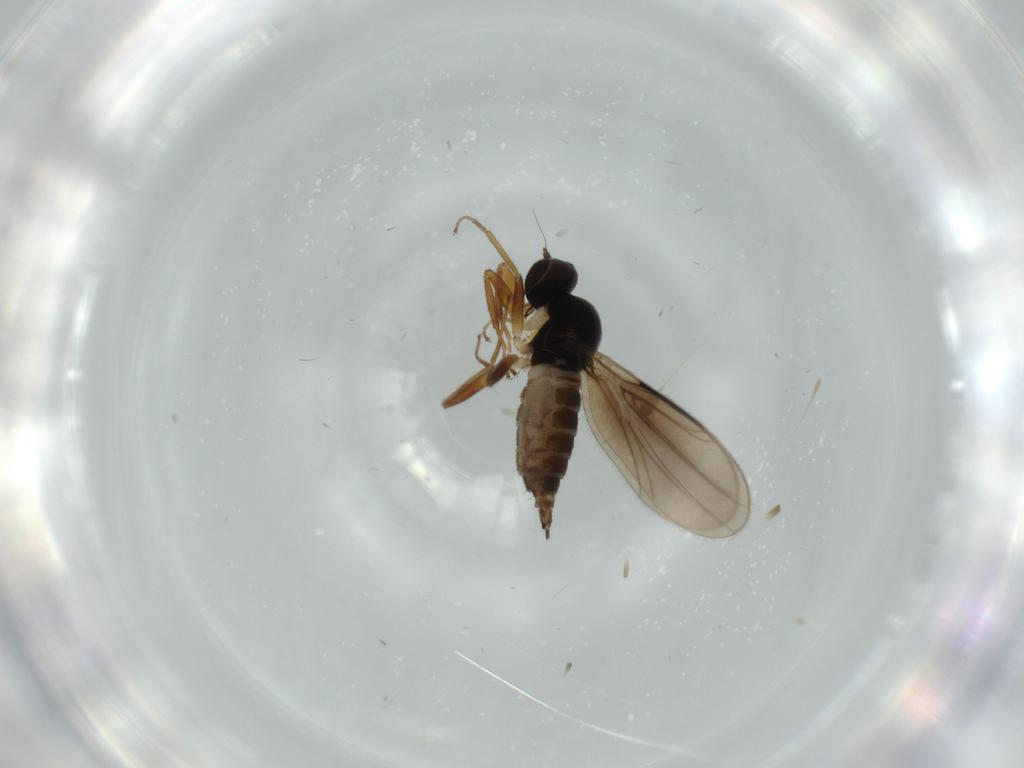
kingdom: Animalia
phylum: Arthropoda
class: Insecta
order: Diptera
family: Hybotidae
